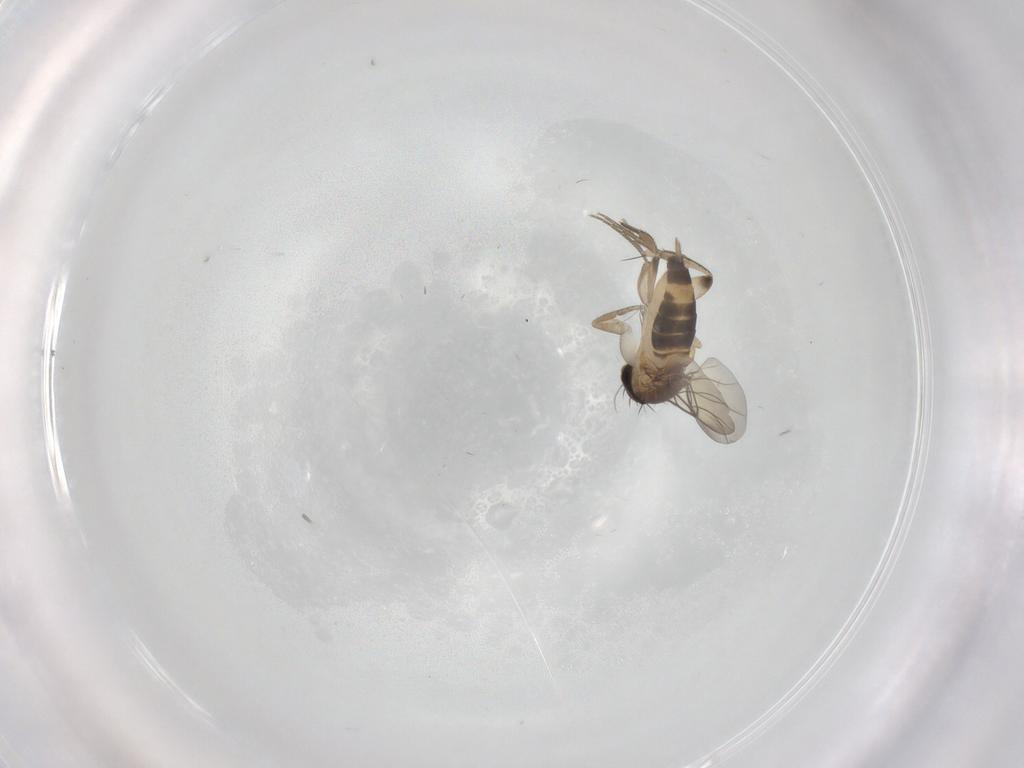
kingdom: Animalia
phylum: Arthropoda
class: Insecta
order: Diptera
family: Phoridae
